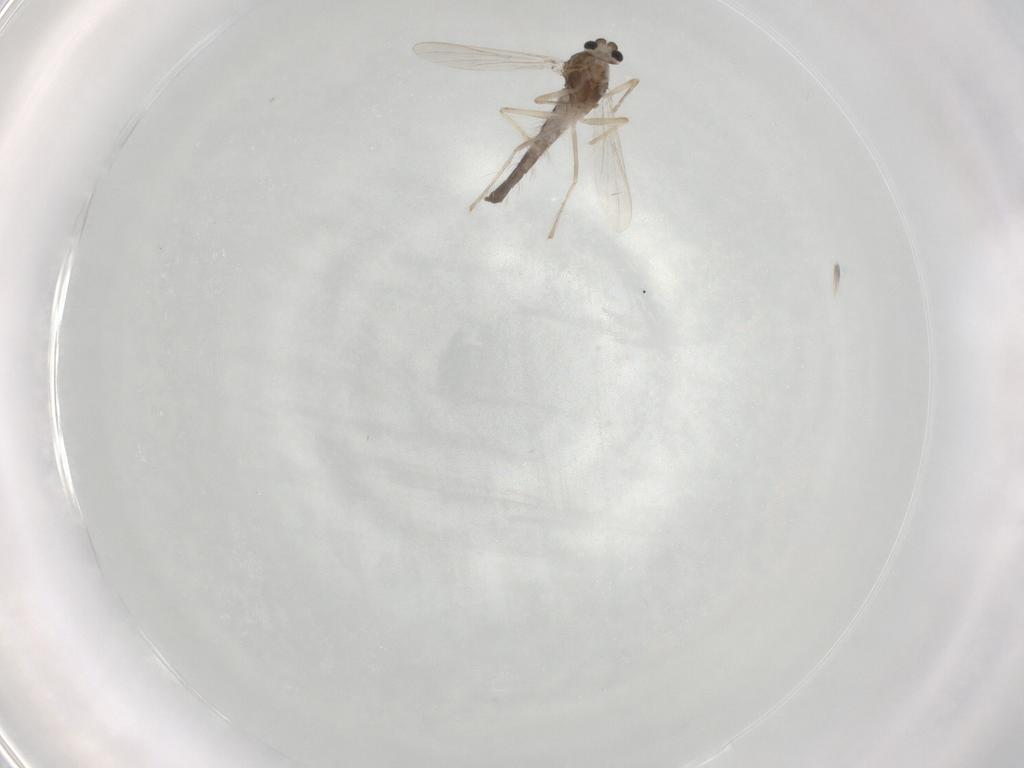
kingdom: Animalia
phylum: Arthropoda
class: Insecta
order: Diptera
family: Chironomidae
